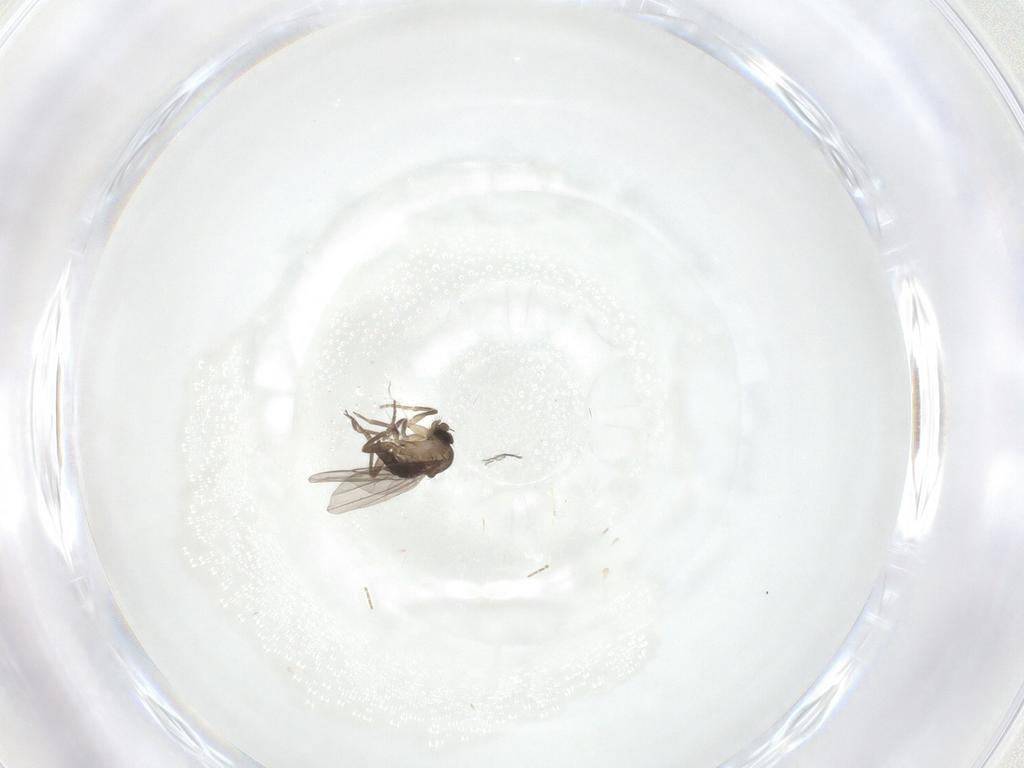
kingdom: Animalia
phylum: Arthropoda
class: Insecta
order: Diptera
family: Phoridae
